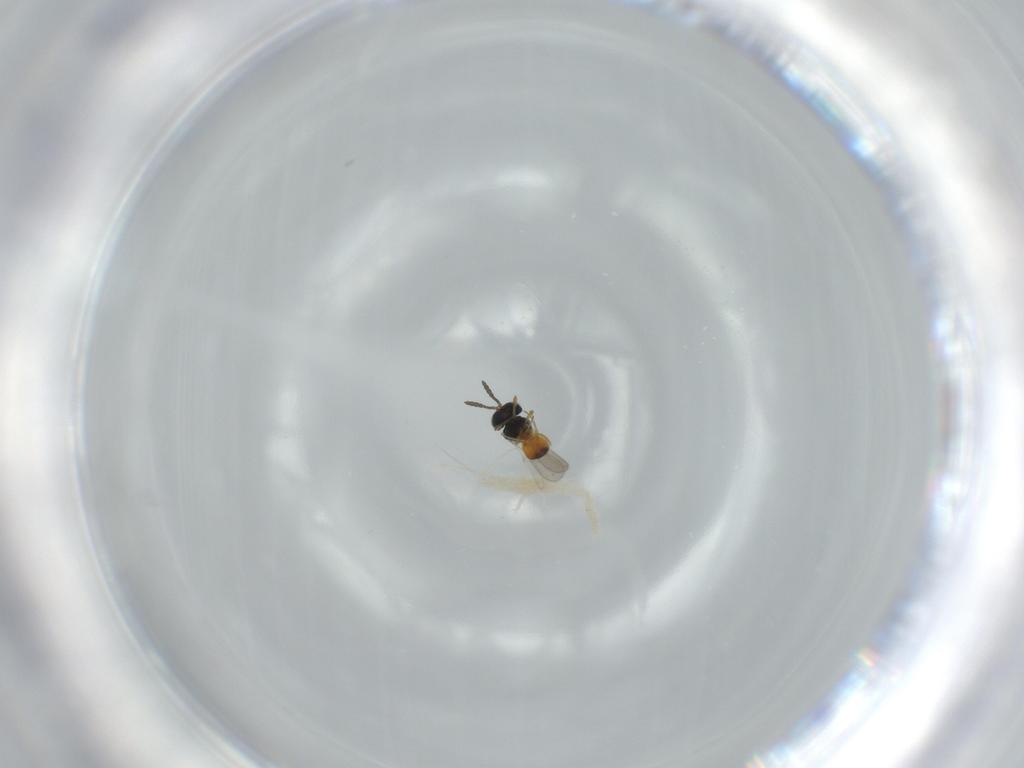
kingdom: Animalia
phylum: Arthropoda
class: Insecta
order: Hymenoptera
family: Scelionidae
